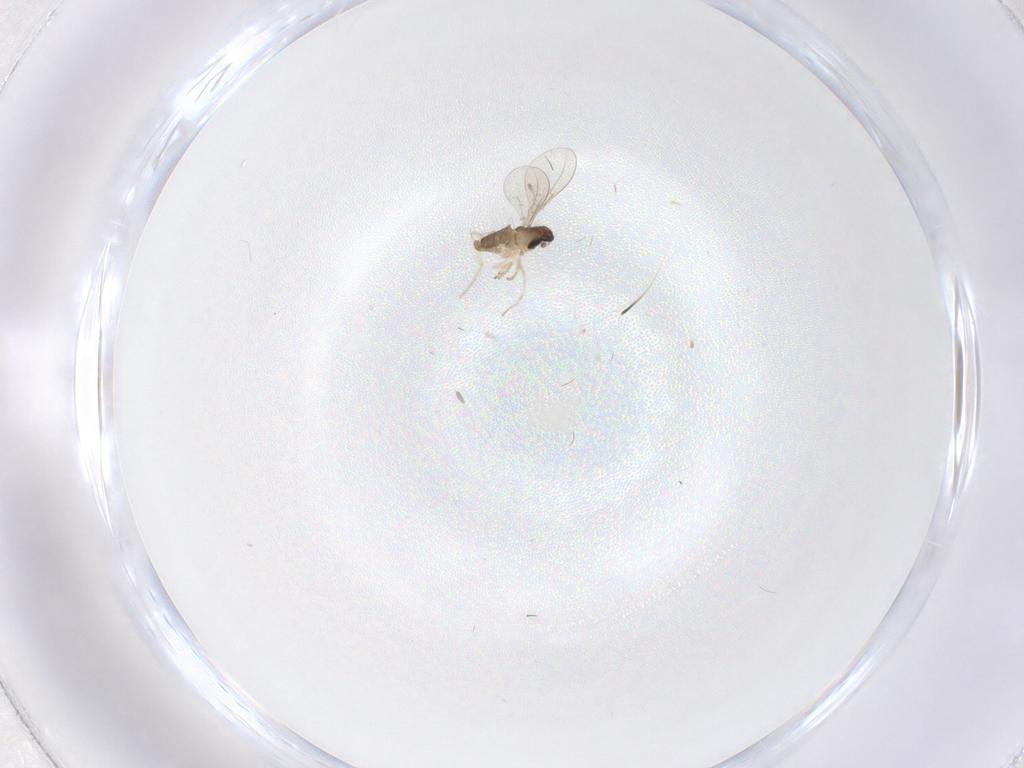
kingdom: Animalia
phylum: Arthropoda
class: Insecta
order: Diptera
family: Cecidomyiidae
